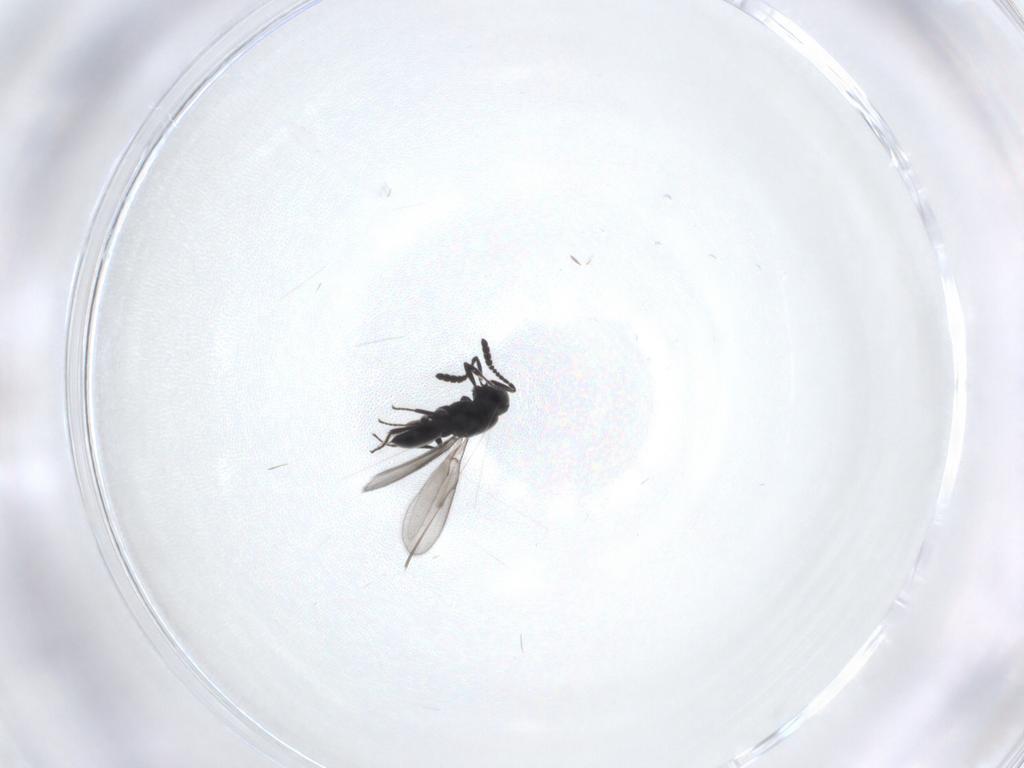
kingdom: Animalia
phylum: Arthropoda
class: Insecta
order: Hymenoptera
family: Scelionidae
